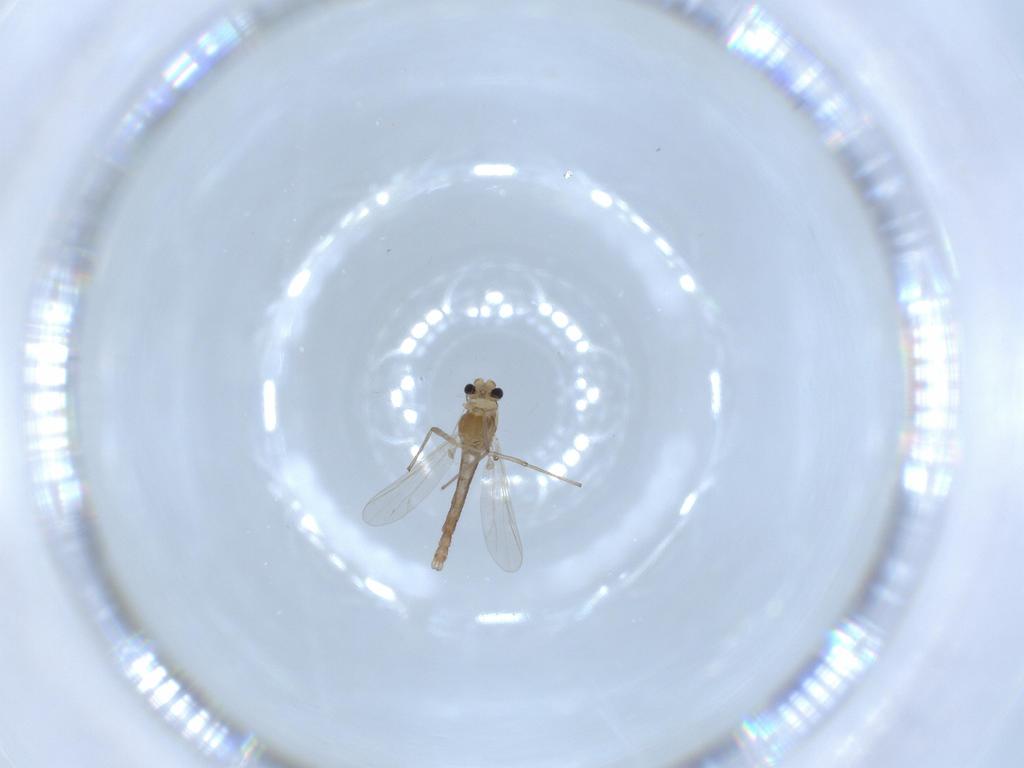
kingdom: Animalia
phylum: Arthropoda
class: Insecta
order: Diptera
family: Chironomidae
